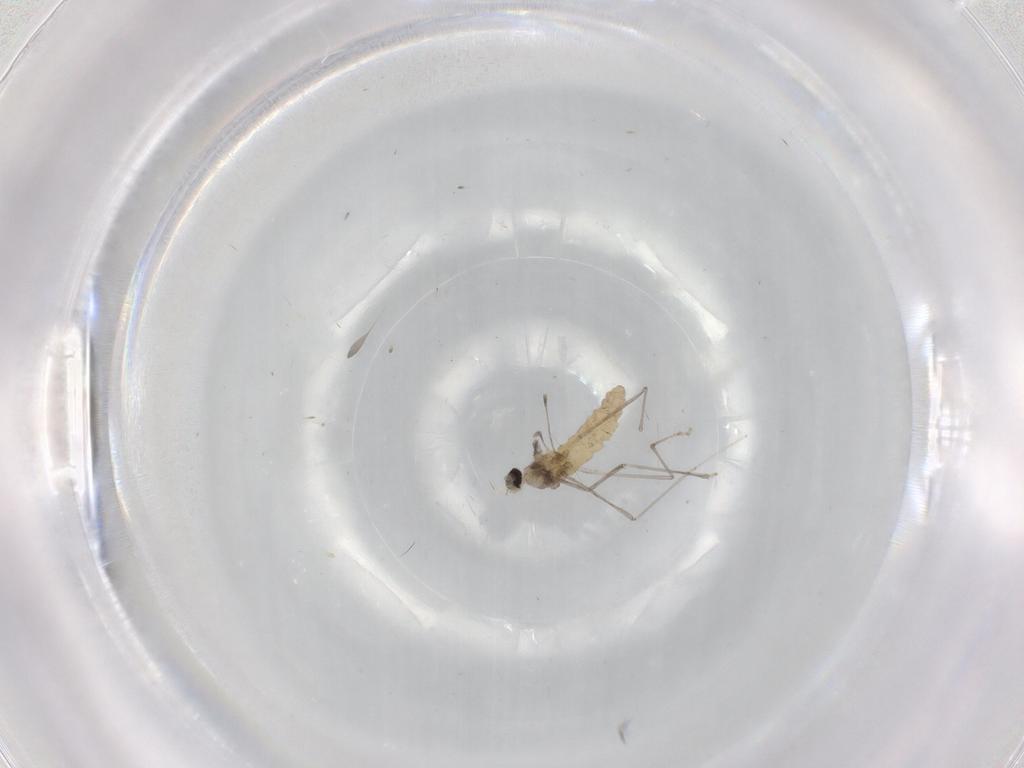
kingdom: Animalia
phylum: Arthropoda
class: Insecta
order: Diptera
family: Cecidomyiidae
